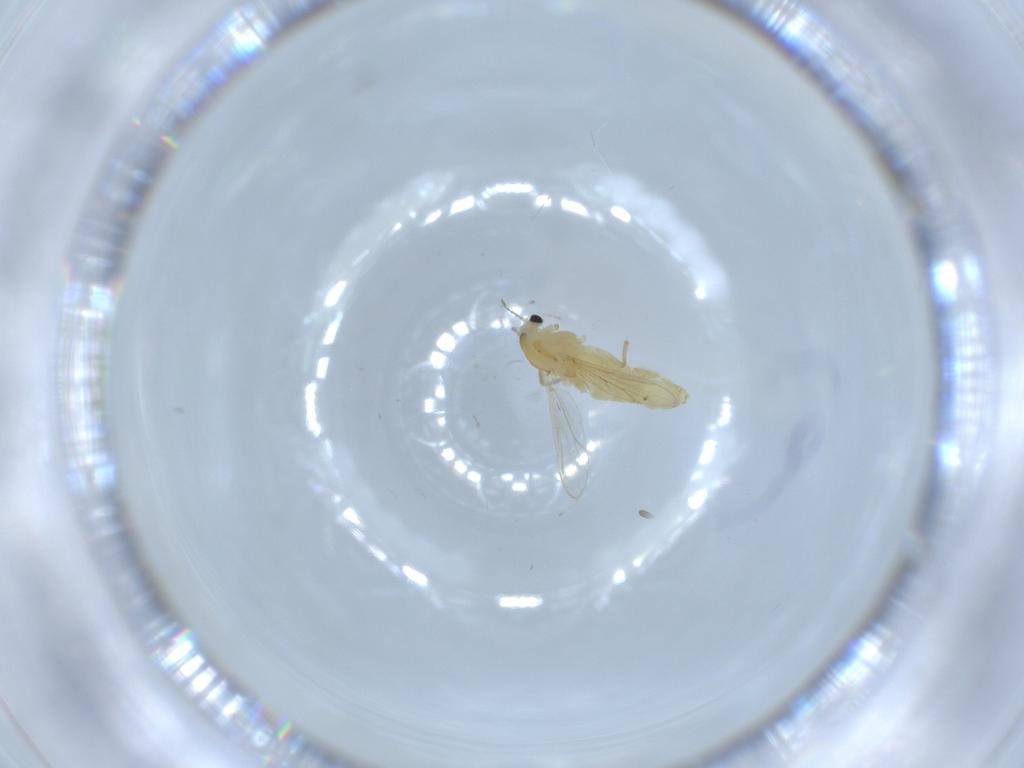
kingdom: Animalia
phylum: Arthropoda
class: Insecta
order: Diptera
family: Chironomidae
